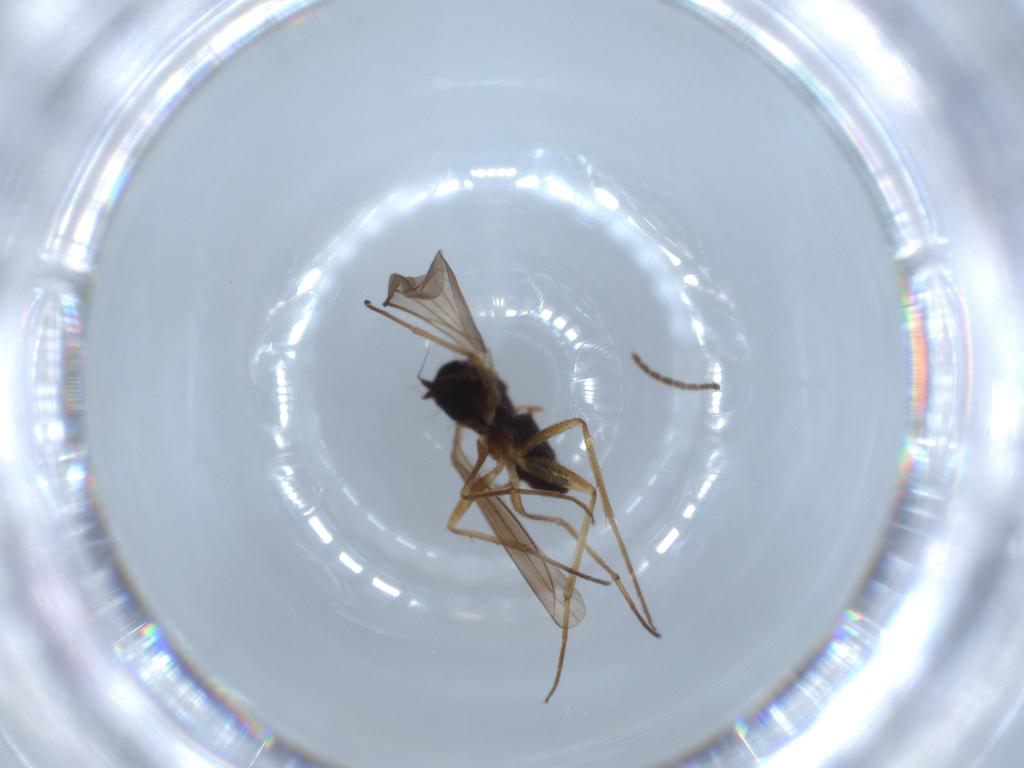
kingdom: Animalia
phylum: Arthropoda
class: Insecta
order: Diptera
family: Dolichopodidae
